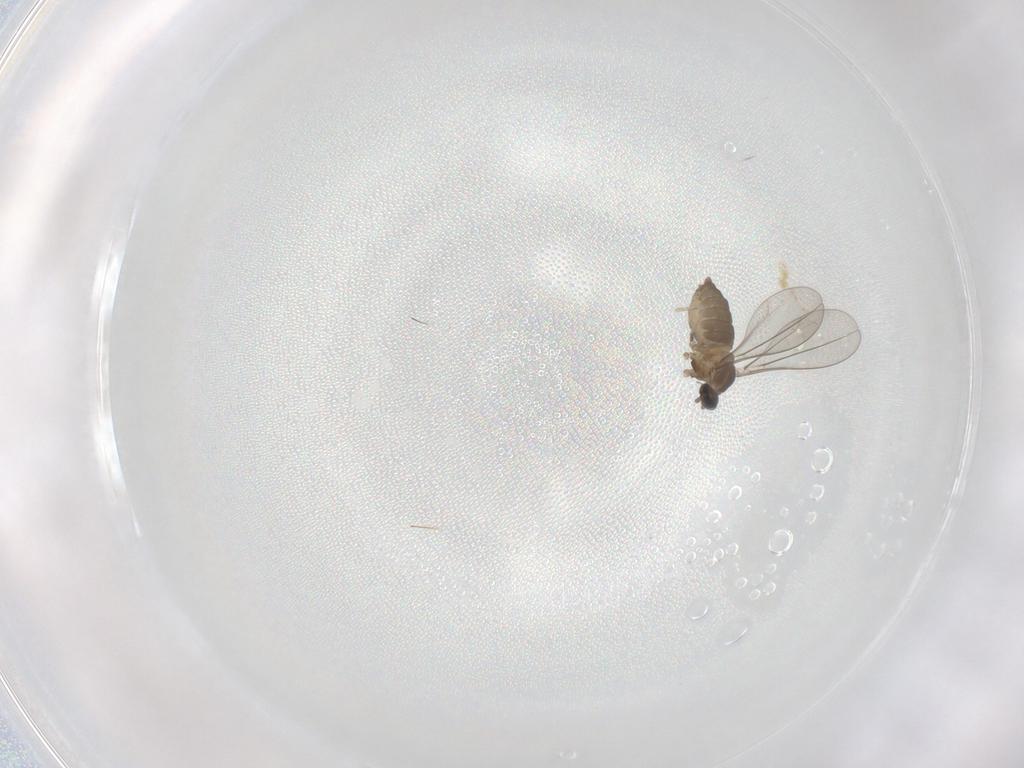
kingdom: Animalia
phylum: Arthropoda
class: Insecta
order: Diptera
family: Cecidomyiidae
